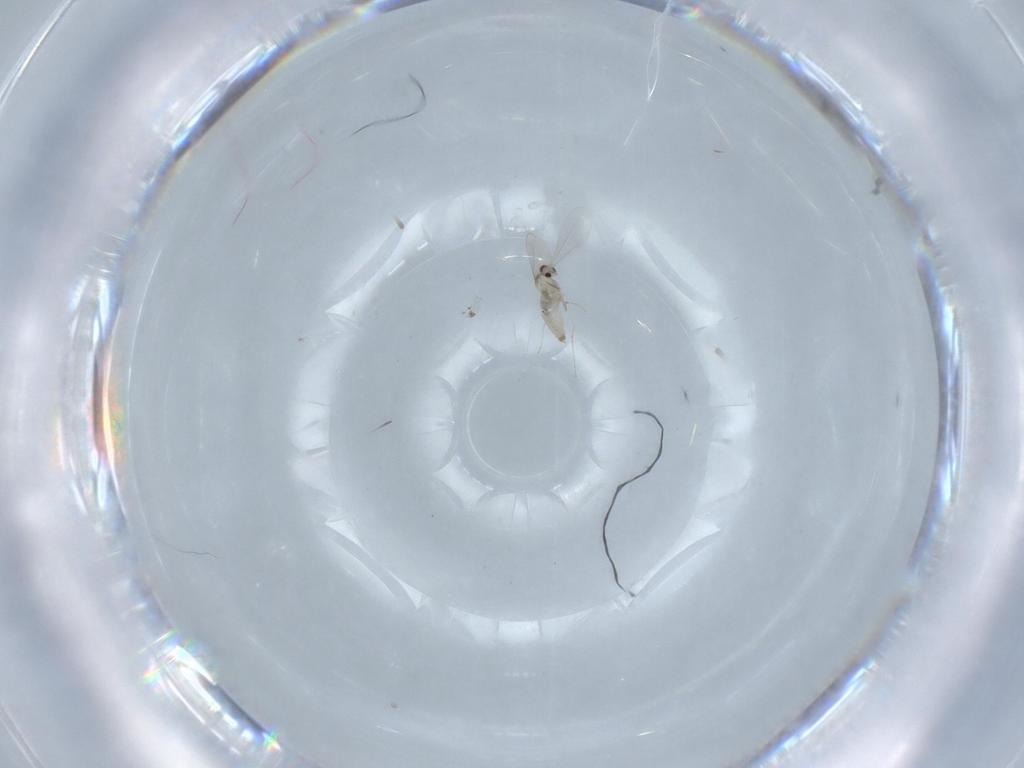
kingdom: Animalia
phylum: Arthropoda
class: Insecta
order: Diptera
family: Cecidomyiidae
